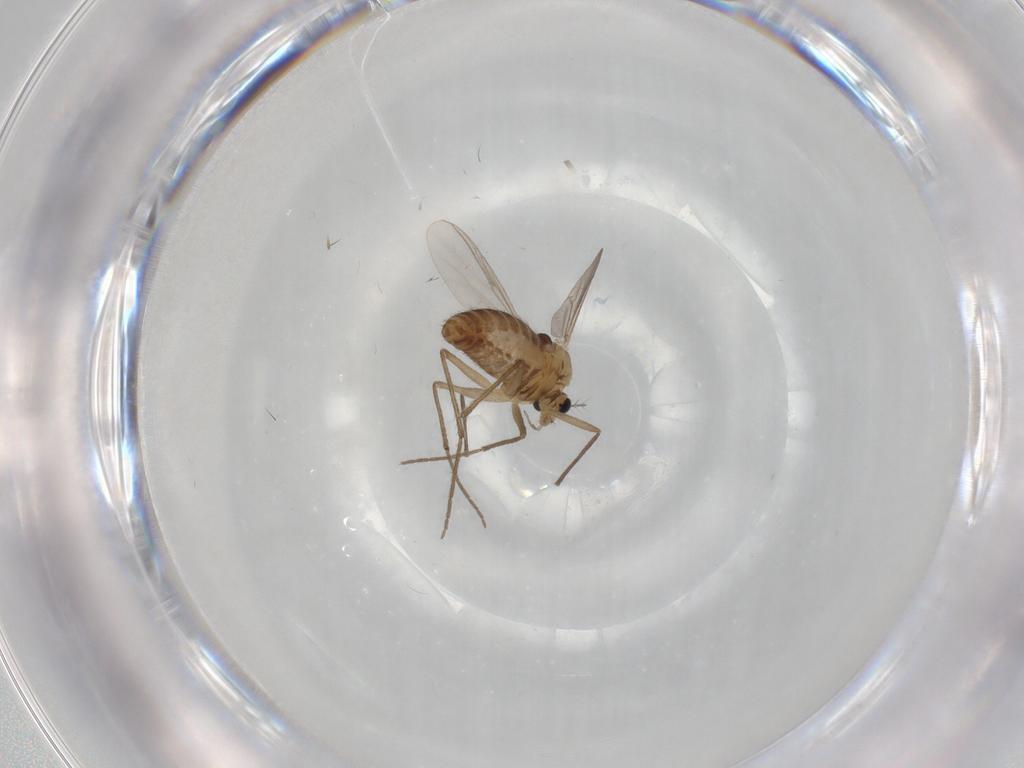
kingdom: Animalia
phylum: Arthropoda
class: Insecta
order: Diptera
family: Chironomidae
